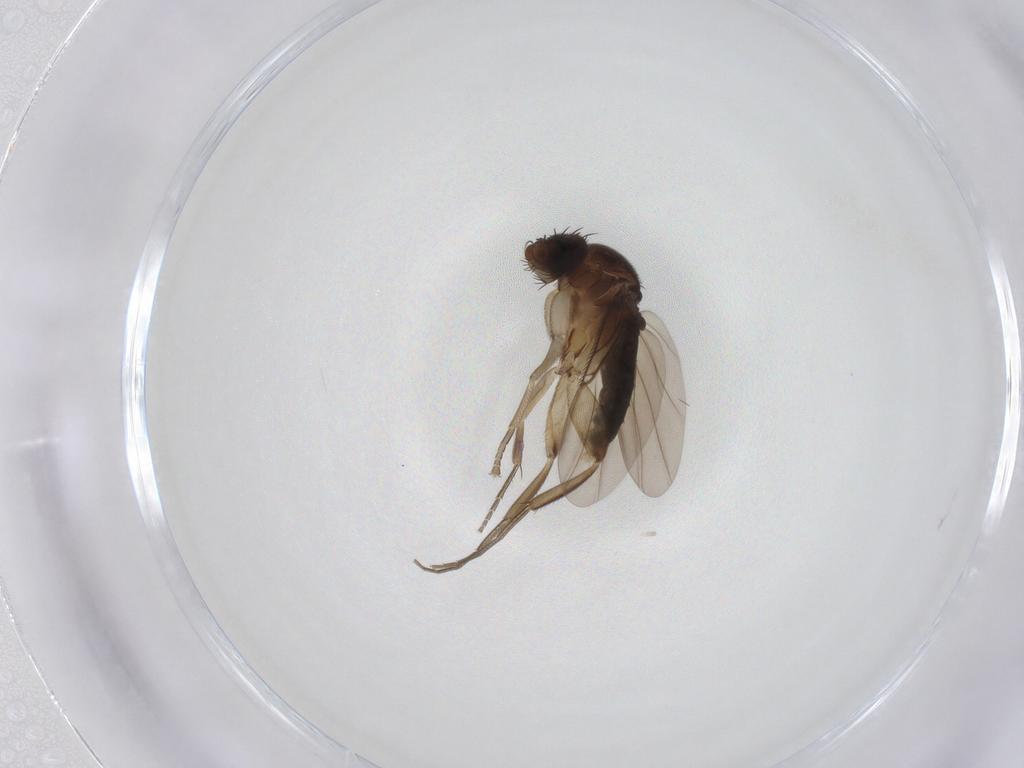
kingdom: Animalia
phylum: Arthropoda
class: Insecta
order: Diptera
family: Phoridae
